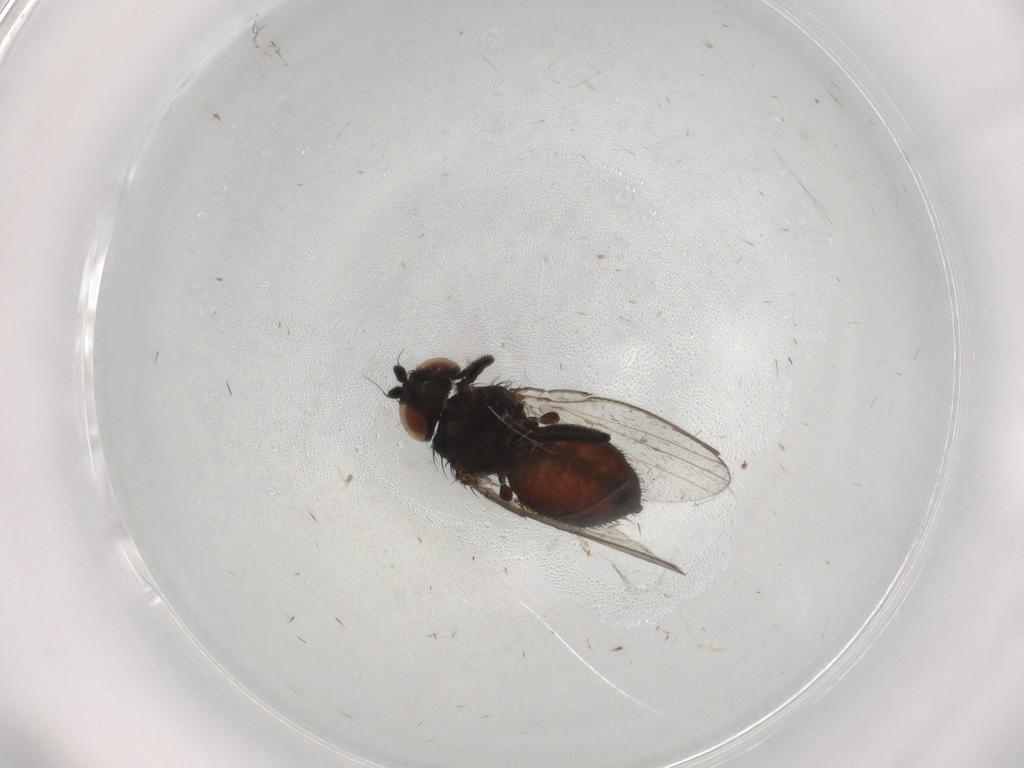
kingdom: Animalia
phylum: Arthropoda
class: Insecta
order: Diptera
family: Milichiidae
